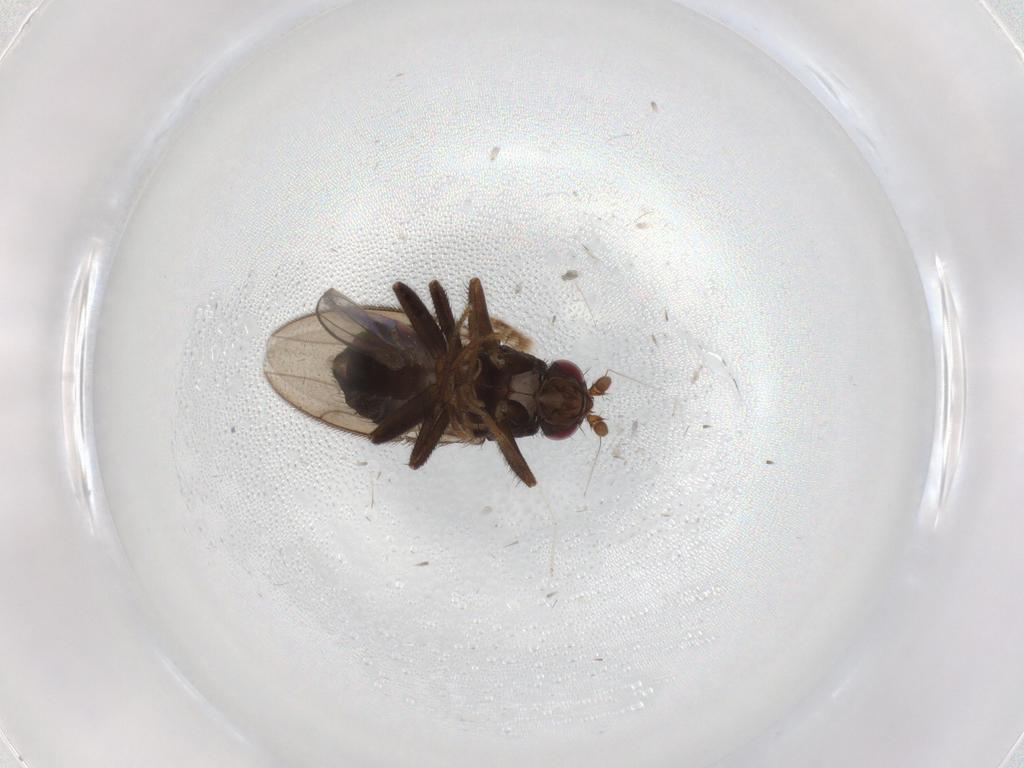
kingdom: Animalia
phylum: Arthropoda
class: Insecta
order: Diptera
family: Sphaeroceridae
